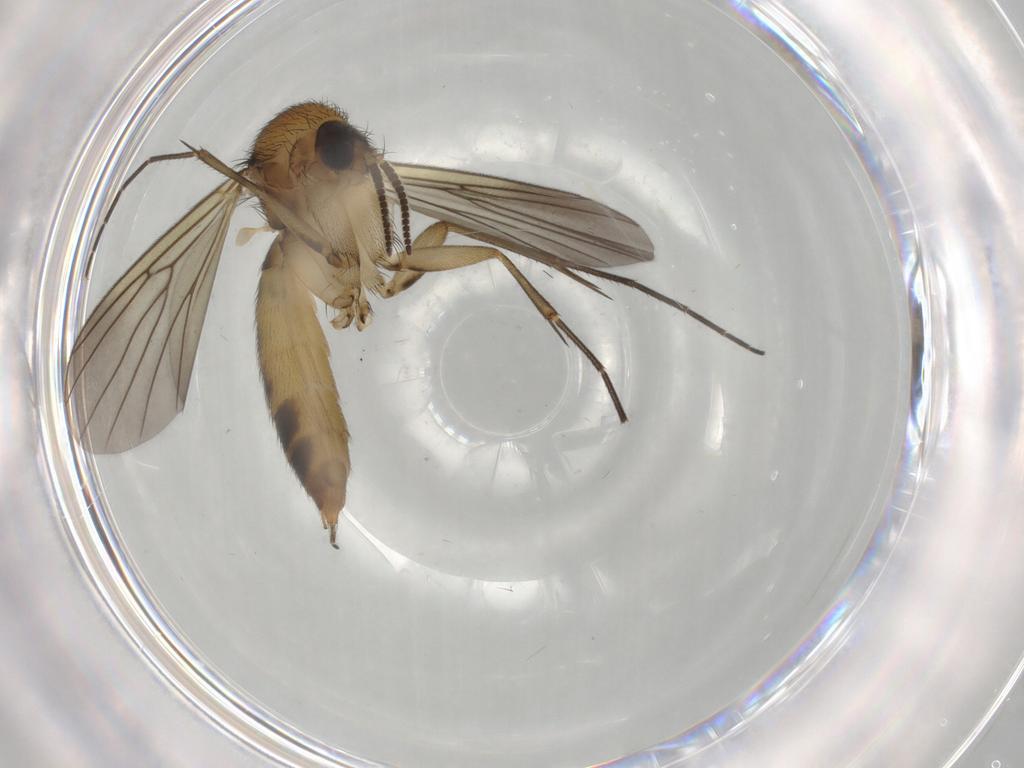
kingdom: Animalia
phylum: Arthropoda
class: Insecta
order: Diptera
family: Mycetophilidae
